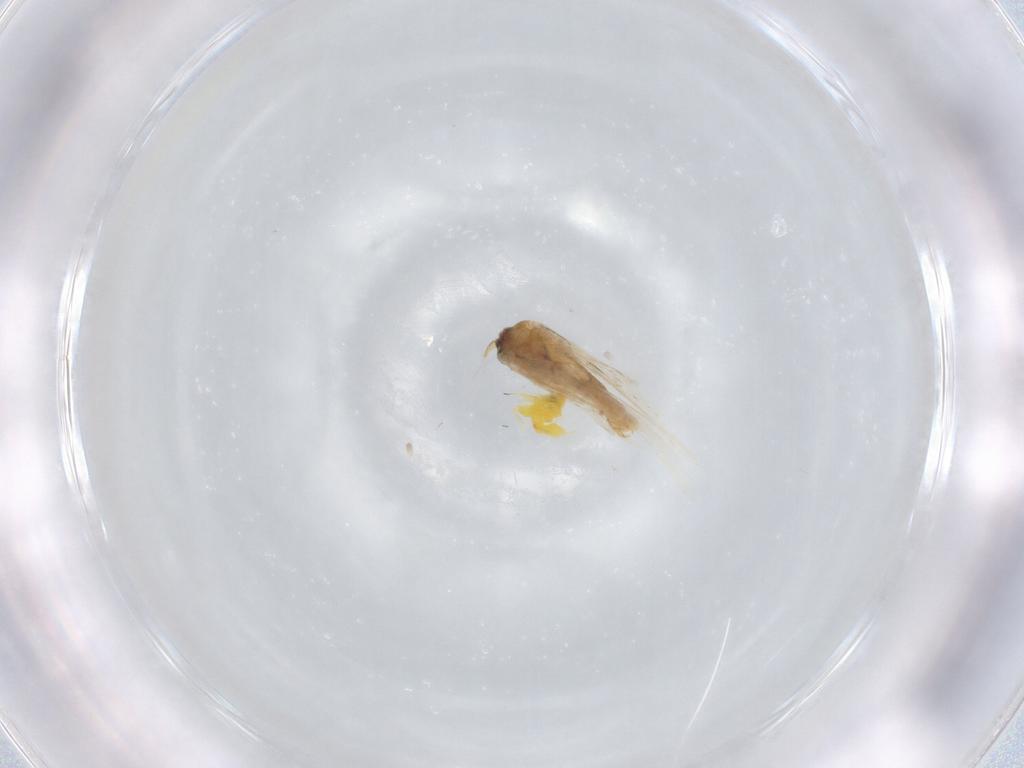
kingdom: Animalia
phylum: Arthropoda
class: Insecta
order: Lepidoptera
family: Nepticulidae
